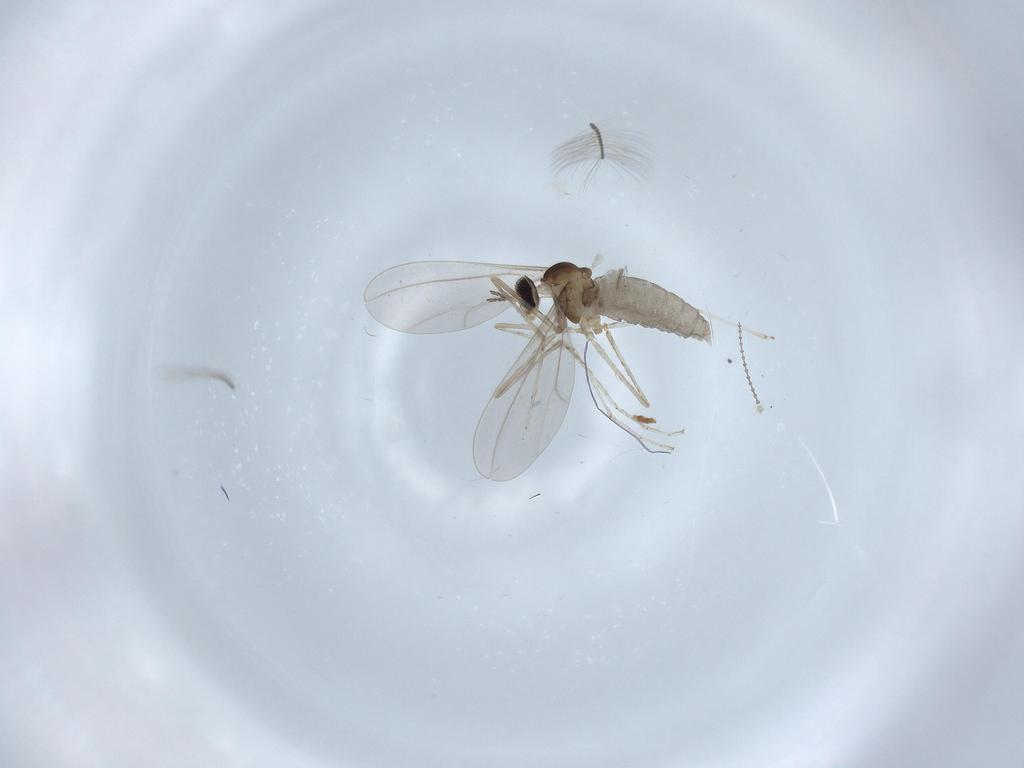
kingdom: Animalia
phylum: Arthropoda
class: Insecta
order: Diptera
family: Cecidomyiidae
